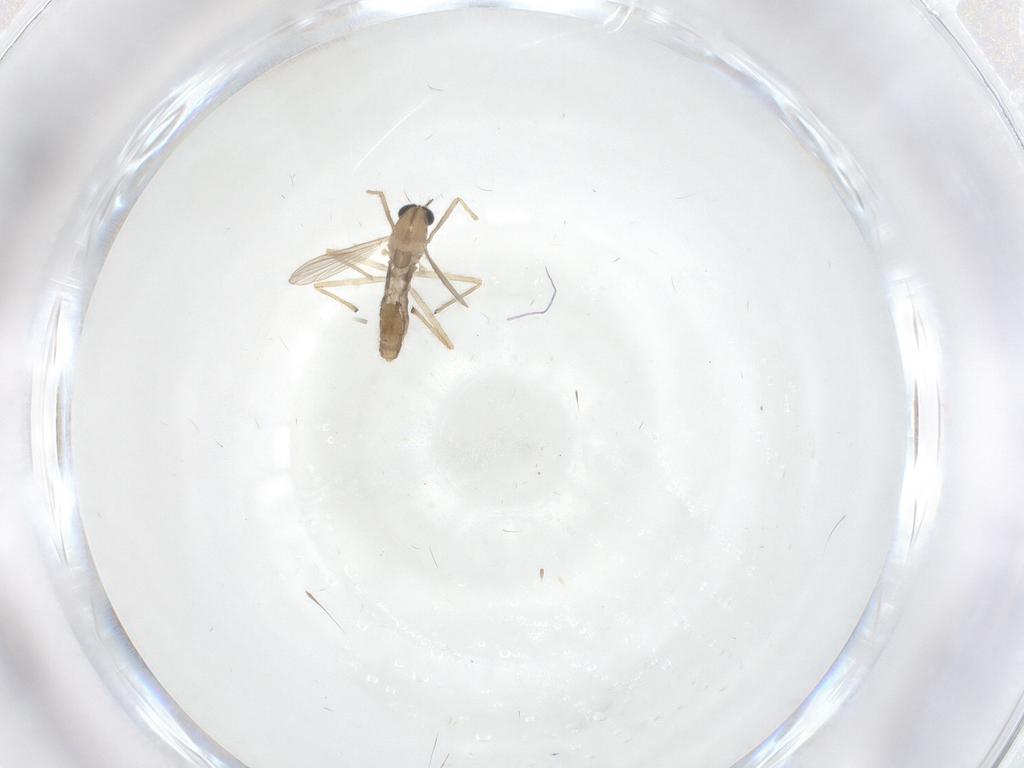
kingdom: Animalia
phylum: Arthropoda
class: Insecta
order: Diptera
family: Chironomidae
